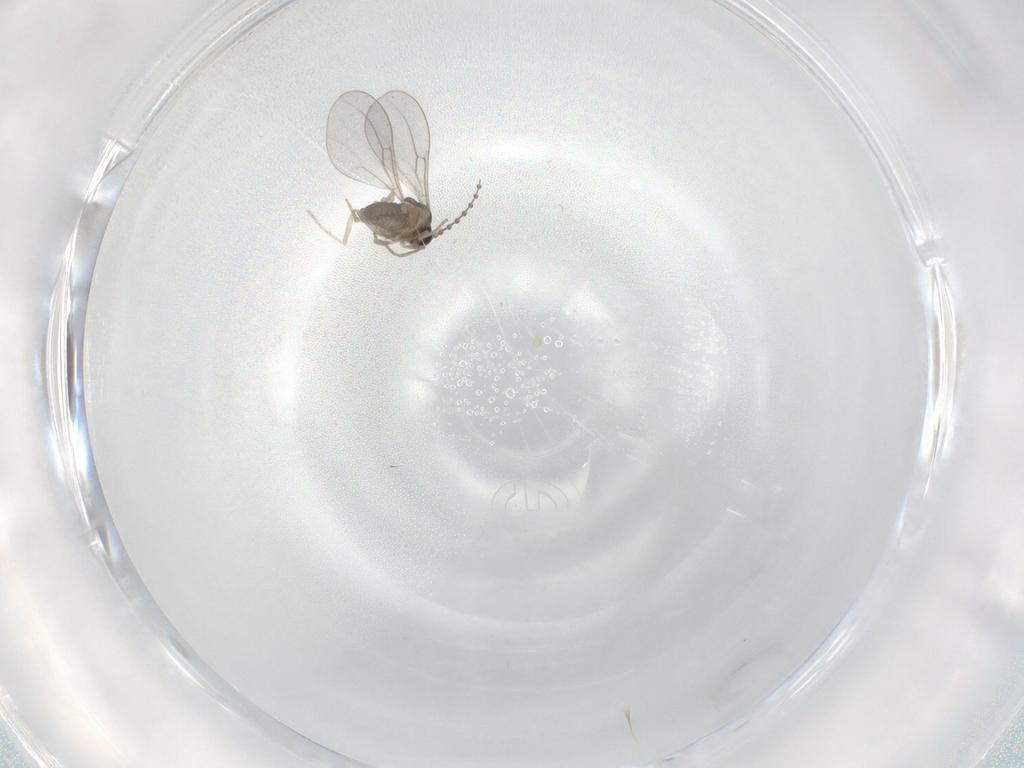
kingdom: Animalia
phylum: Arthropoda
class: Insecta
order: Diptera
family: Cecidomyiidae
